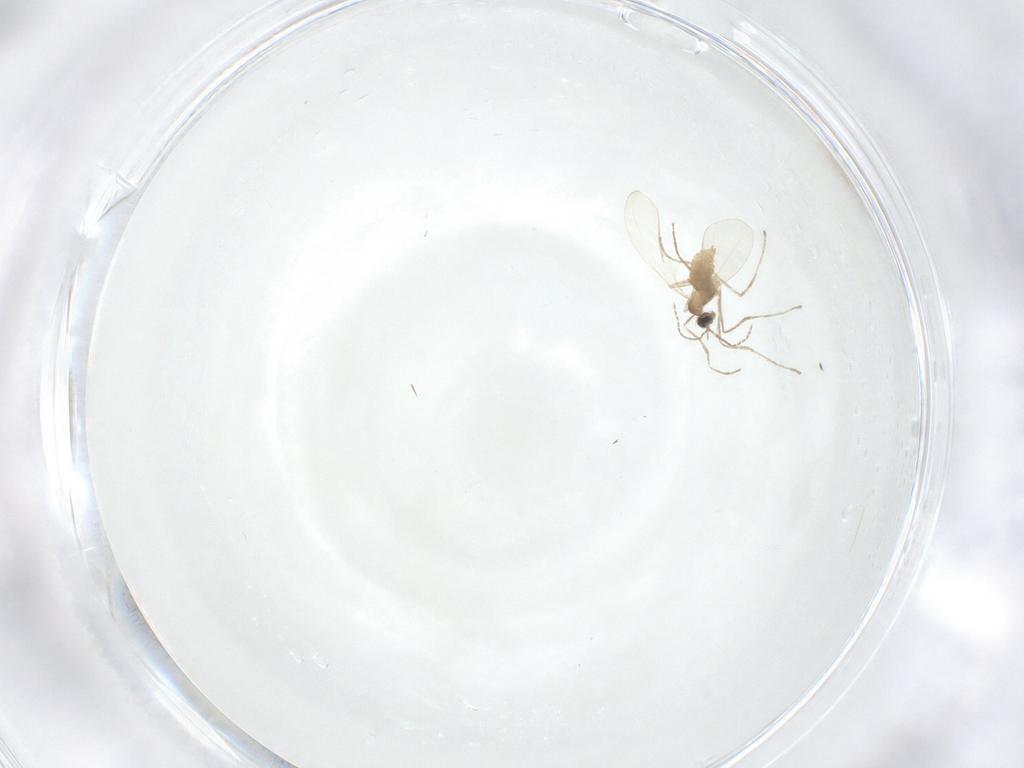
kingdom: Animalia
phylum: Arthropoda
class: Insecta
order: Diptera
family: Cecidomyiidae
